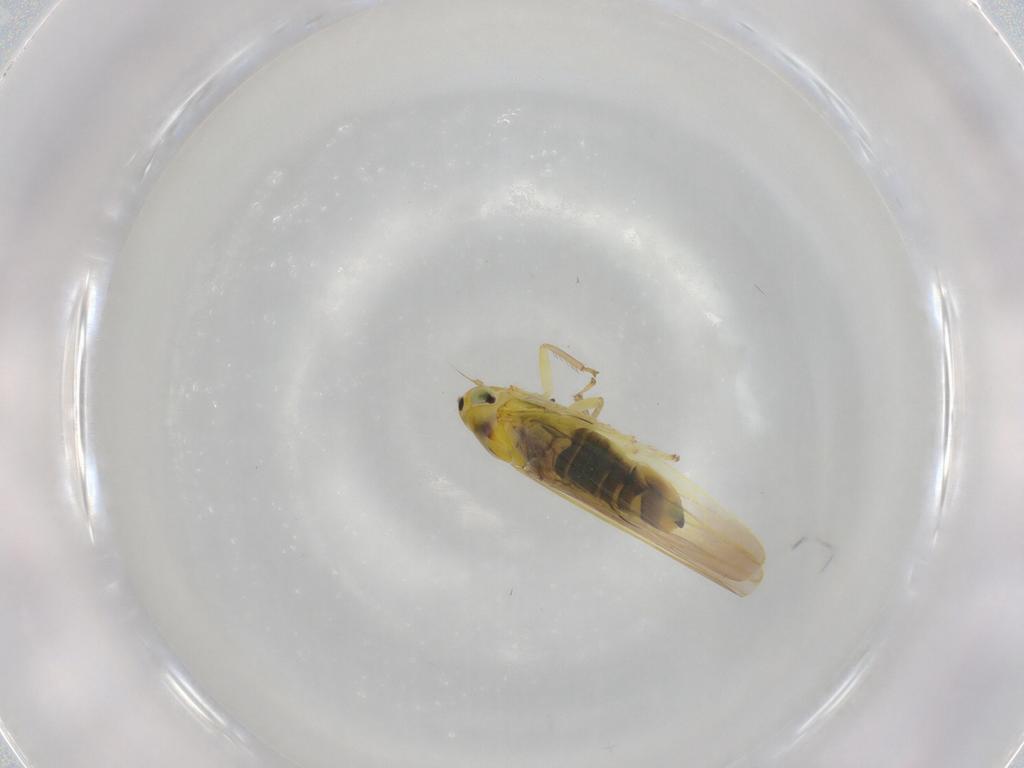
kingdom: Animalia
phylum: Arthropoda
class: Insecta
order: Hemiptera
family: Cicadellidae
